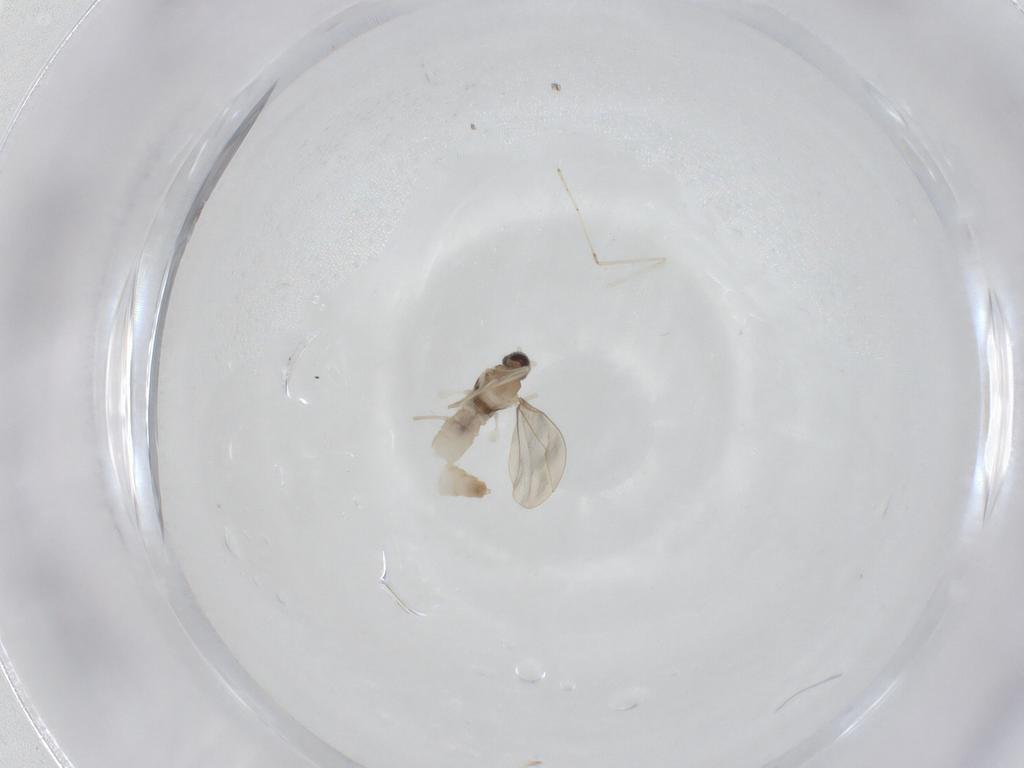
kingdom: Animalia
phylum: Arthropoda
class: Insecta
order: Diptera
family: Cecidomyiidae
